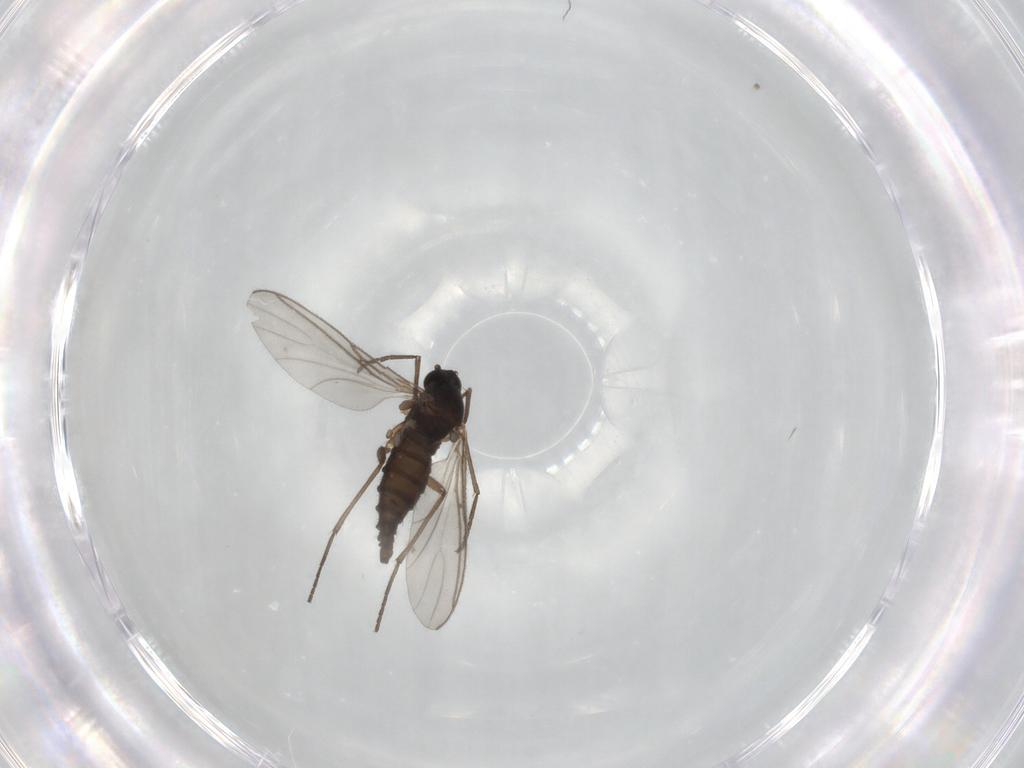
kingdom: Animalia
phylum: Arthropoda
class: Insecta
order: Diptera
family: Sciaridae
